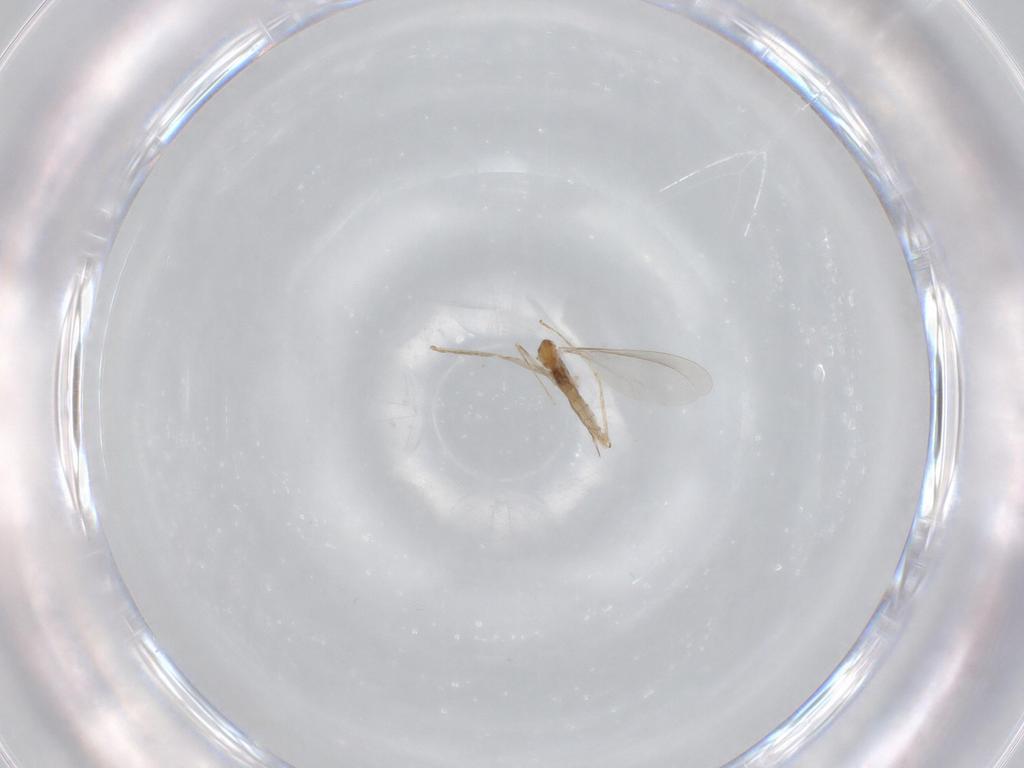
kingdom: Animalia
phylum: Arthropoda
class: Insecta
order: Diptera
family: Cecidomyiidae
